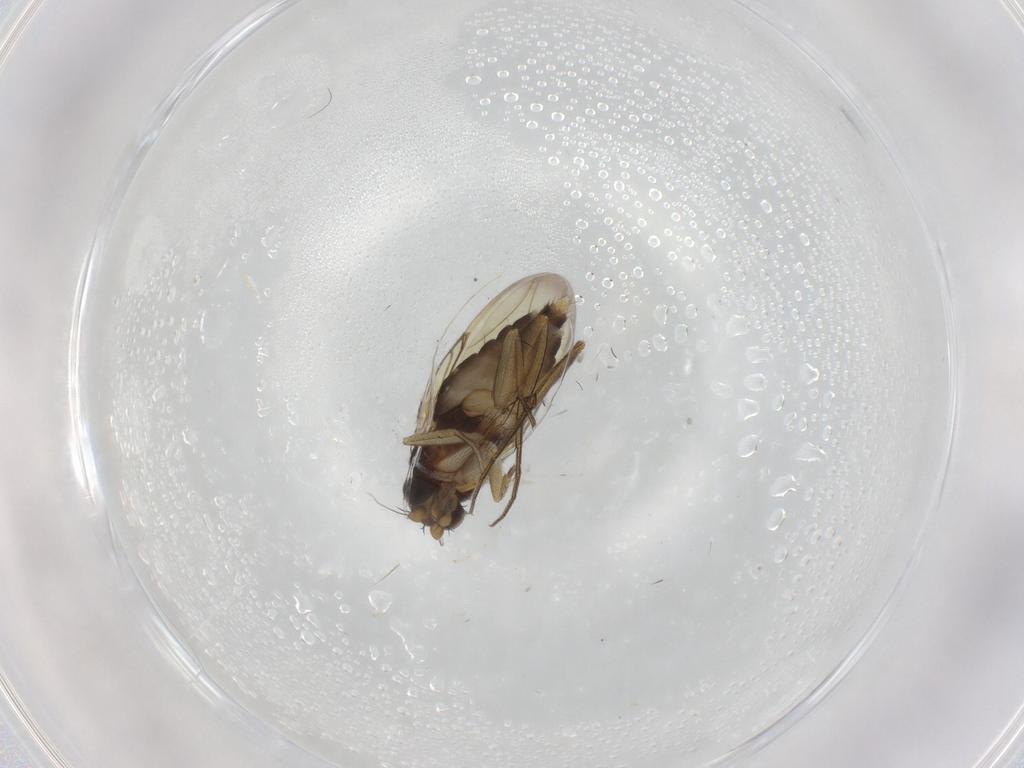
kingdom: Animalia
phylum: Arthropoda
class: Insecta
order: Diptera
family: Phoridae
